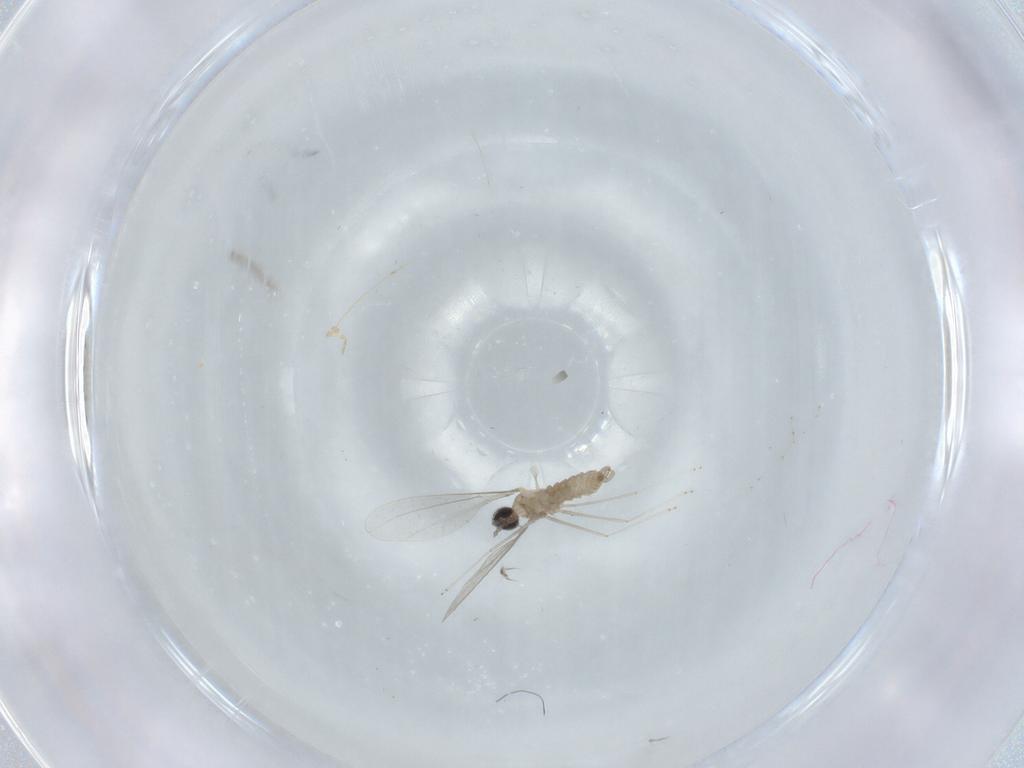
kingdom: Animalia
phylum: Arthropoda
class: Insecta
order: Diptera
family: Cecidomyiidae
